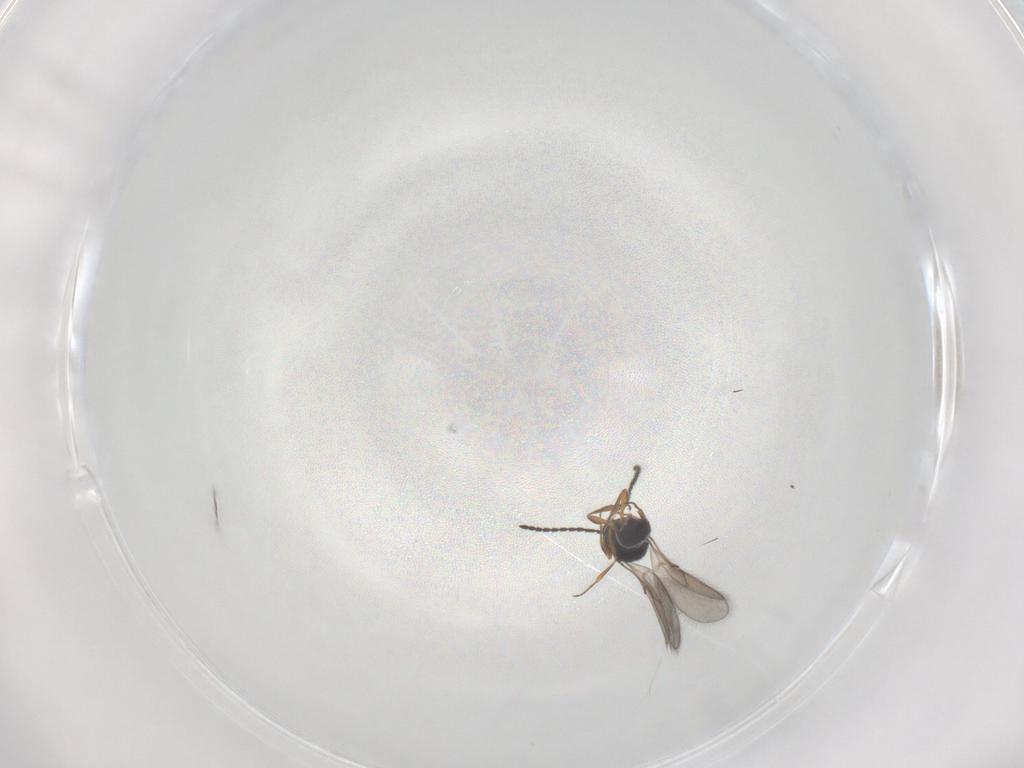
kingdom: Animalia
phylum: Arthropoda
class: Insecta
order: Hymenoptera
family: Scelionidae
